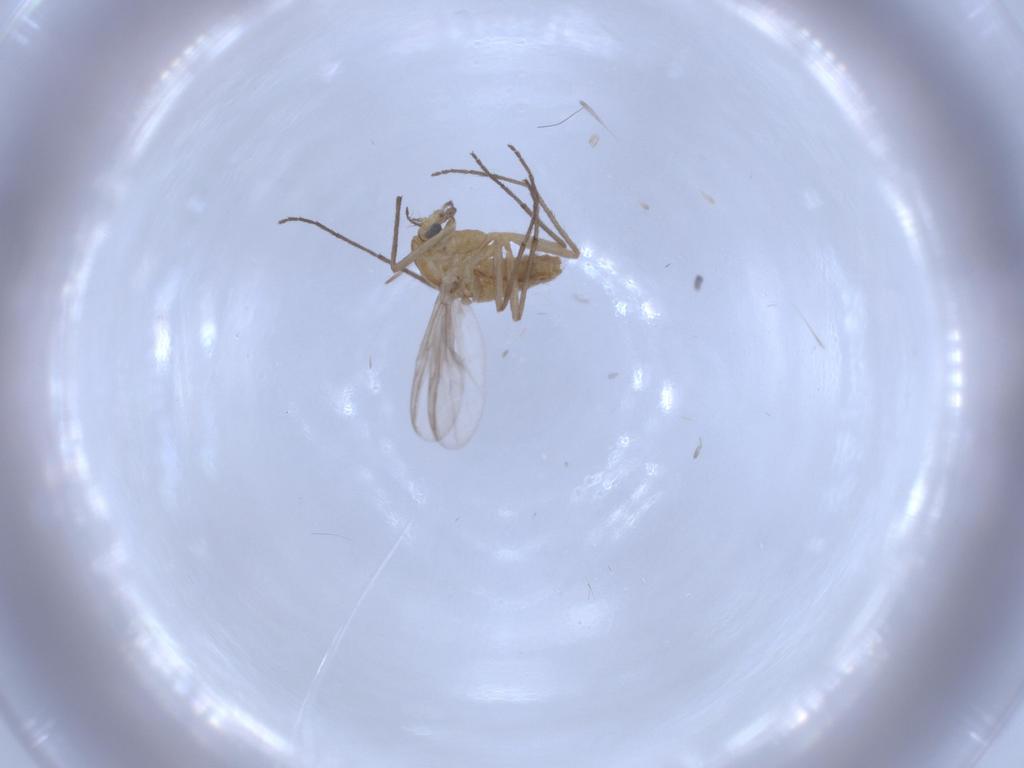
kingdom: Animalia
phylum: Arthropoda
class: Insecta
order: Diptera
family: Chironomidae
